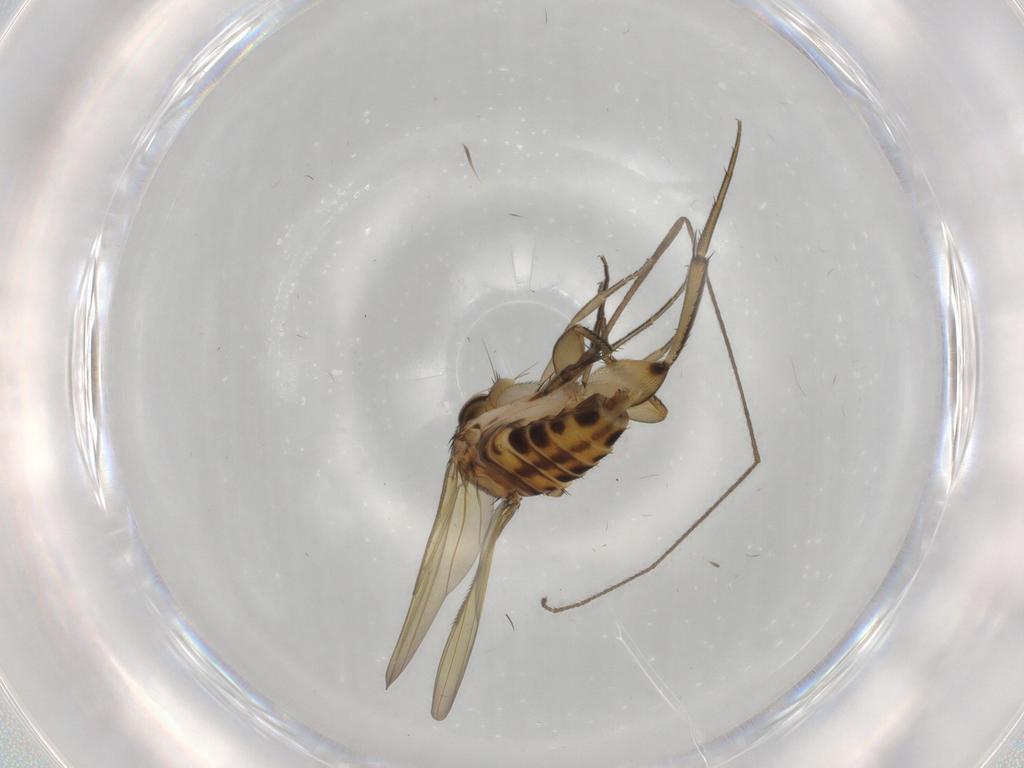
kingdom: Animalia
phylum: Arthropoda
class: Insecta
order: Diptera
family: Phoridae
